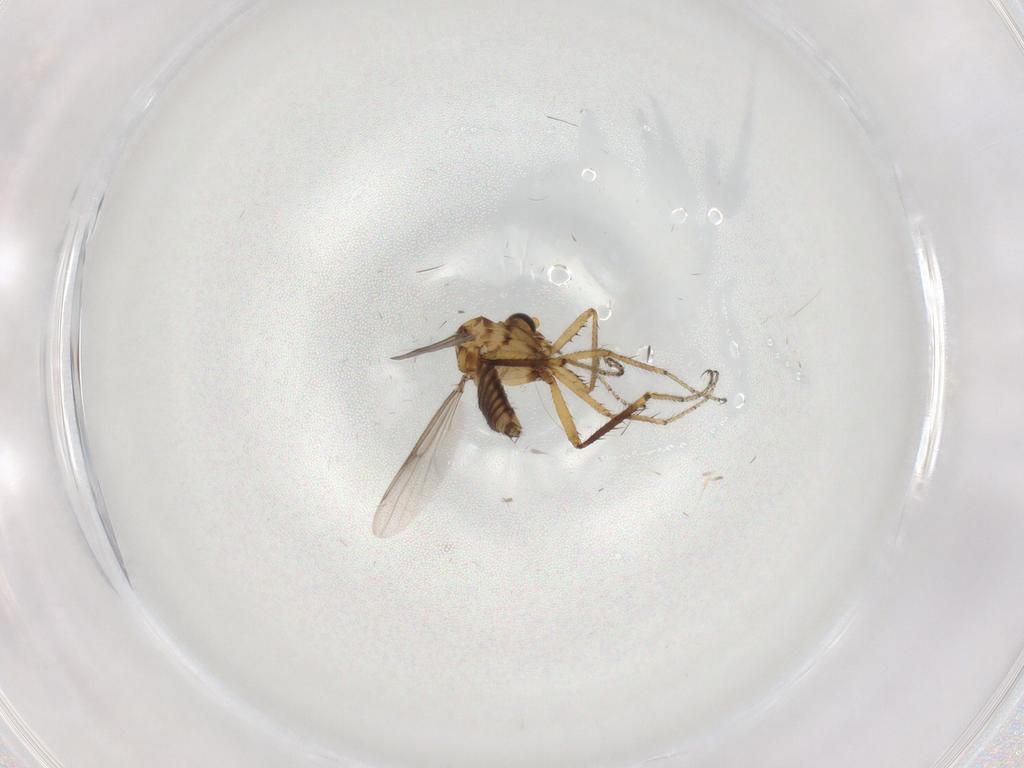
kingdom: Animalia
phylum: Arthropoda
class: Insecta
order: Diptera
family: Ceratopogonidae
